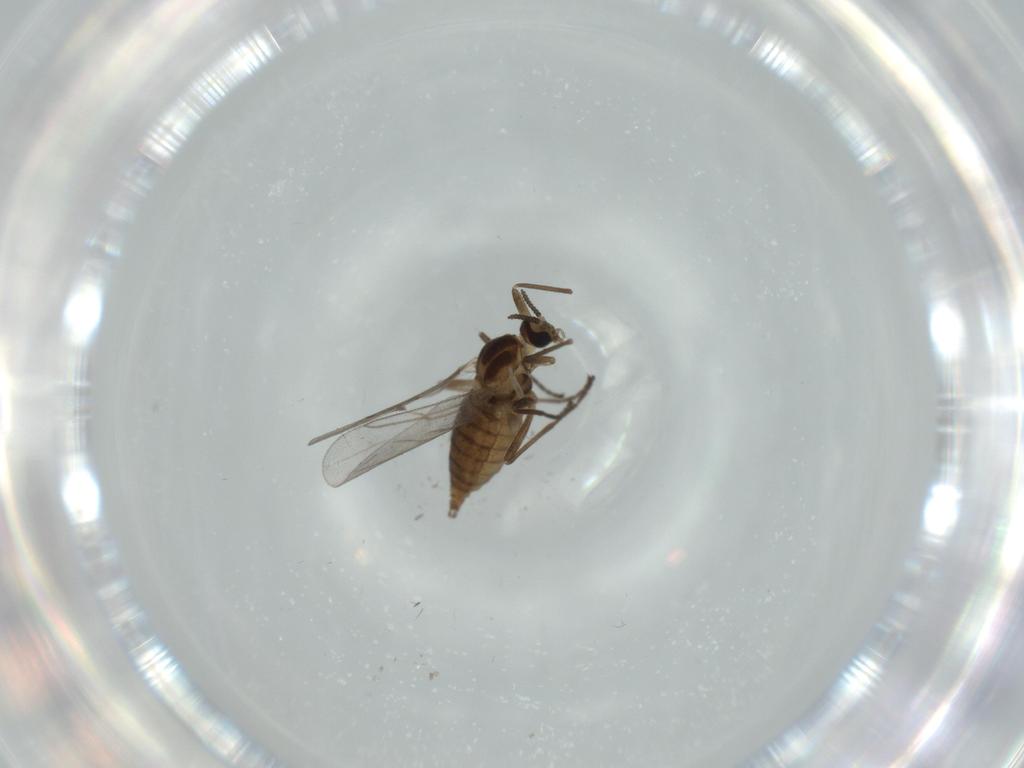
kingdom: Animalia
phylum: Arthropoda
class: Insecta
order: Diptera
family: Cecidomyiidae
